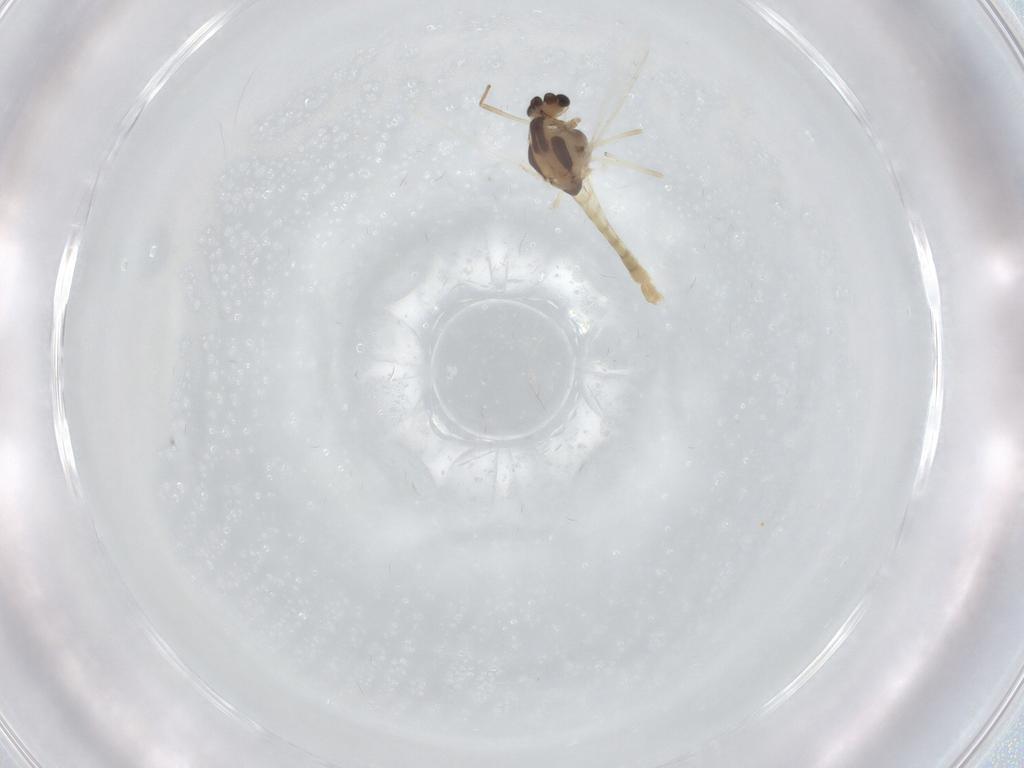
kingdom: Animalia
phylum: Arthropoda
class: Insecta
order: Diptera
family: Chironomidae
